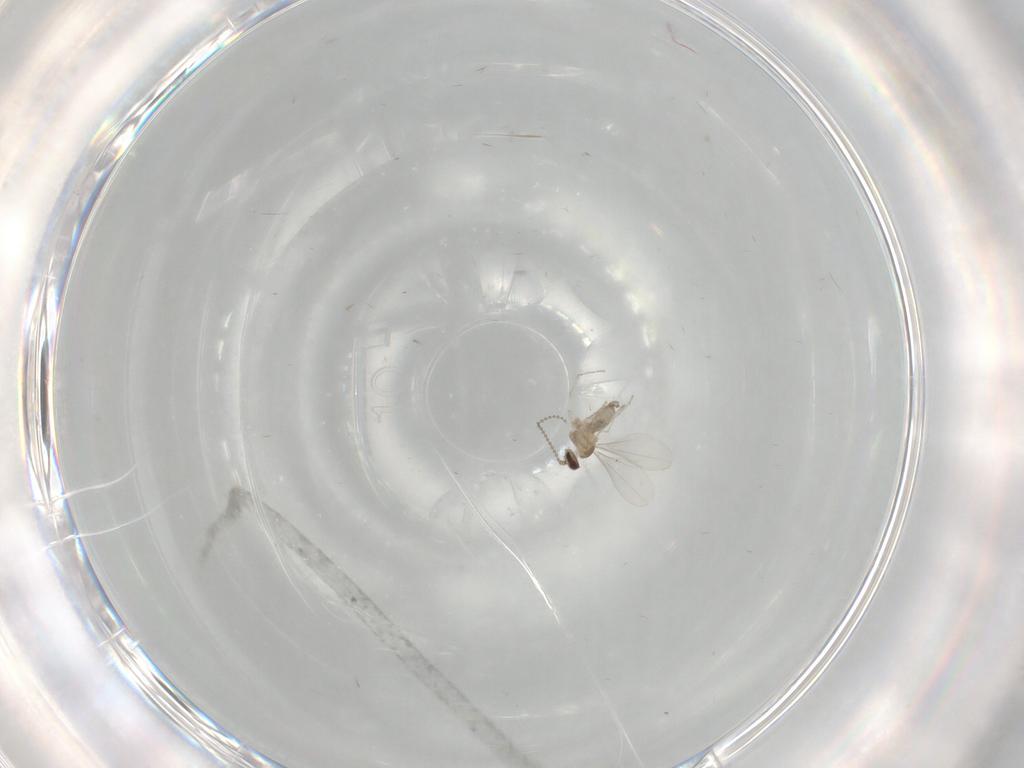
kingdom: Animalia
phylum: Arthropoda
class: Insecta
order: Diptera
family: Cecidomyiidae
